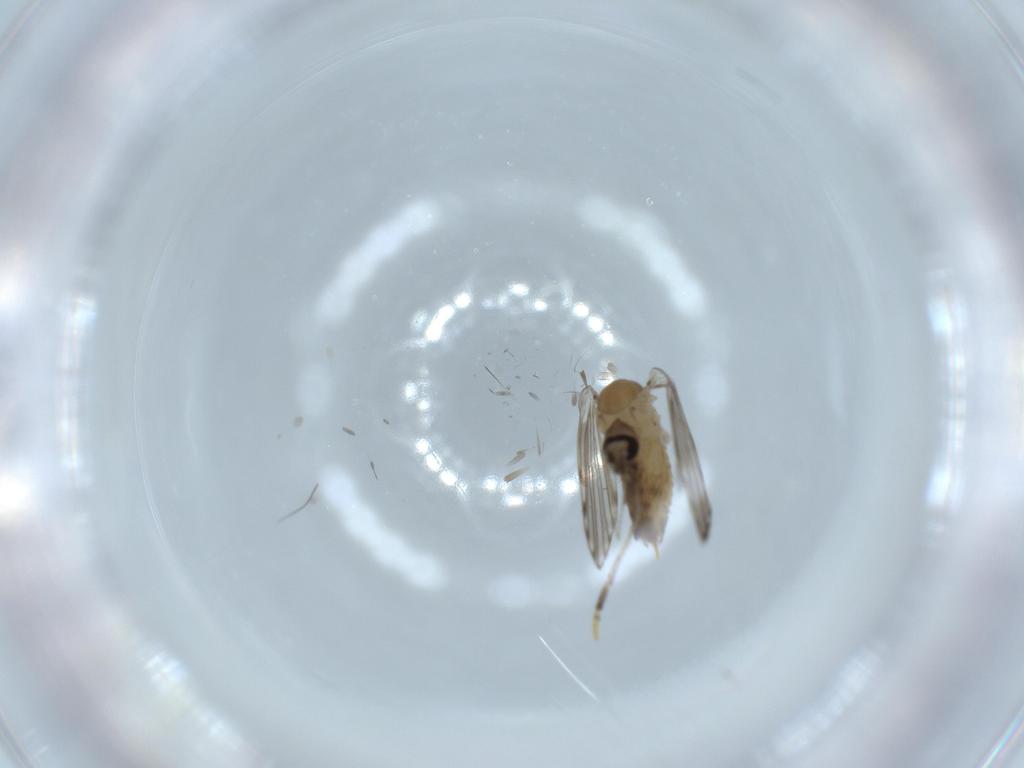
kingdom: Animalia
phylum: Arthropoda
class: Insecta
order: Diptera
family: Psychodidae
